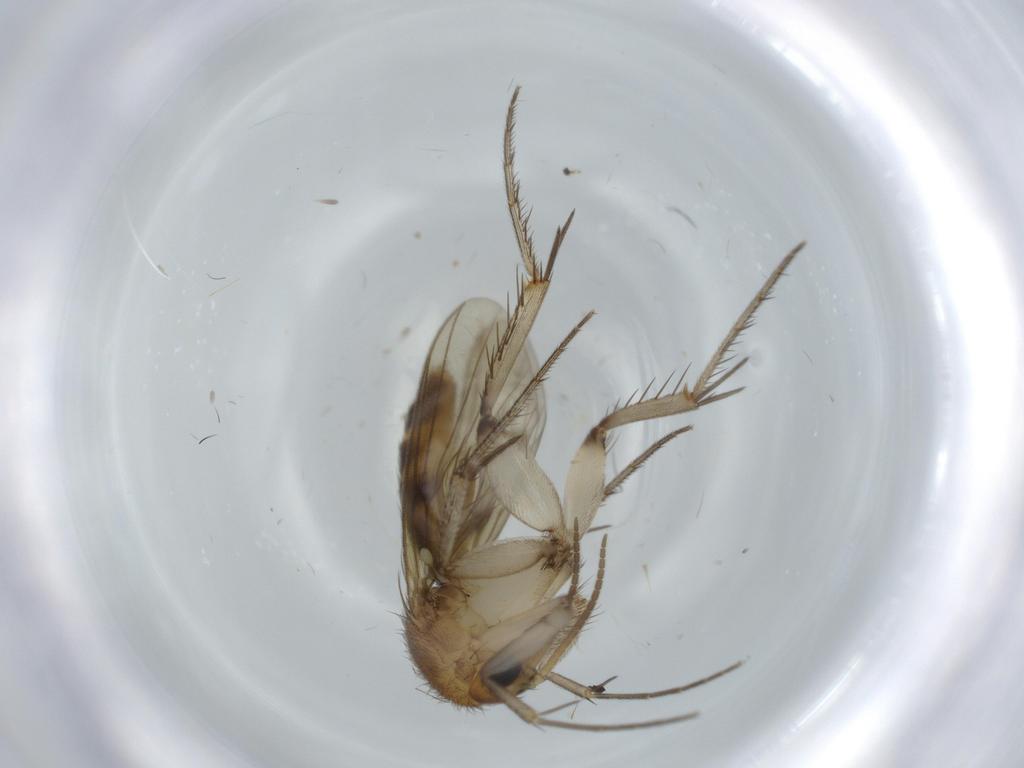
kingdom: Animalia
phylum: Arthropoda
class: Insecta
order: Diptera
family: Mycetophilidae
